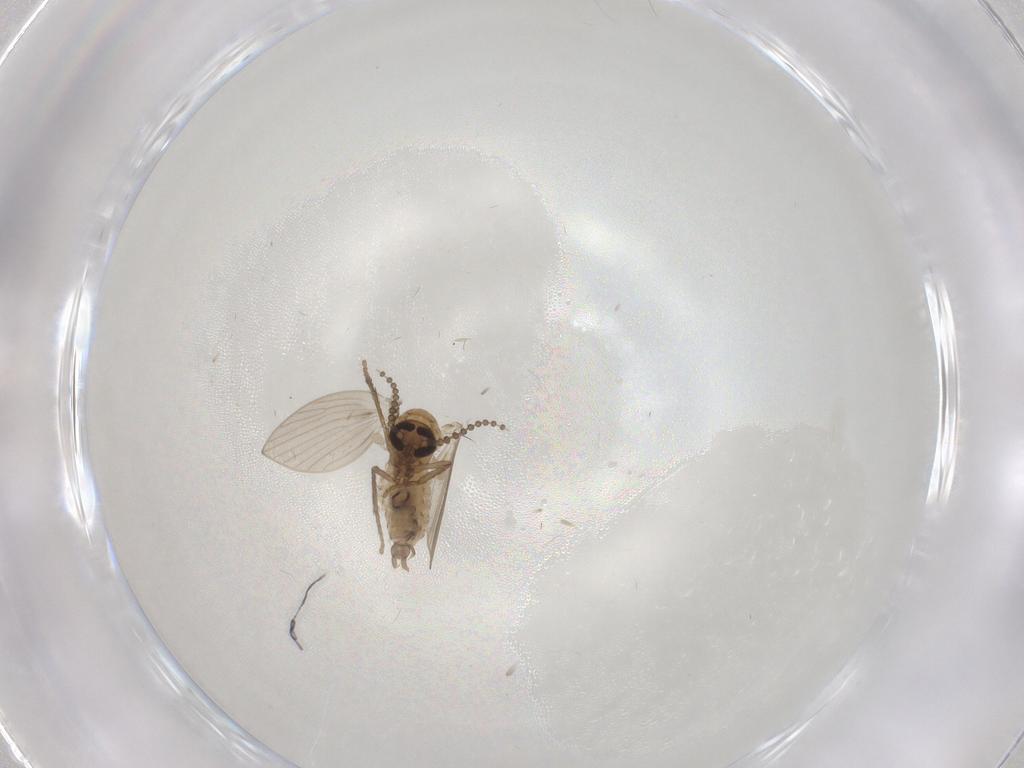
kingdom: Animalia
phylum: Arthropoda
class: Insecta
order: Diptera
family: Cecidomyiidae
